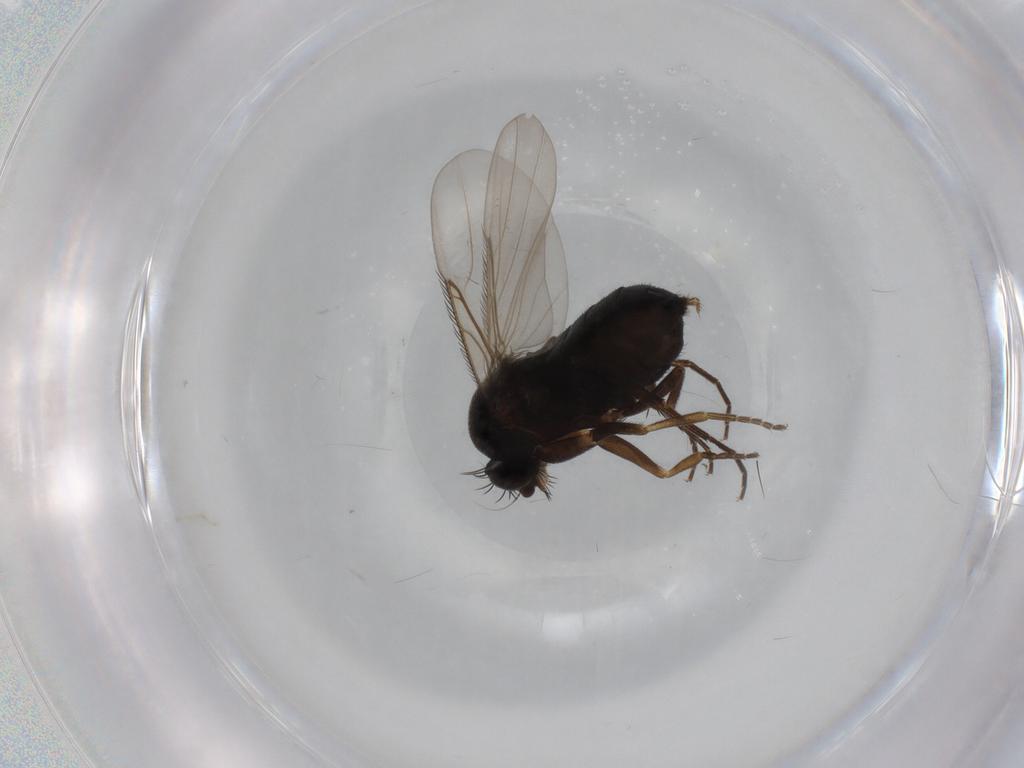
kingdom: Animalia
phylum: Arthropoda
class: Insecta
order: Diptera
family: Phoridae
